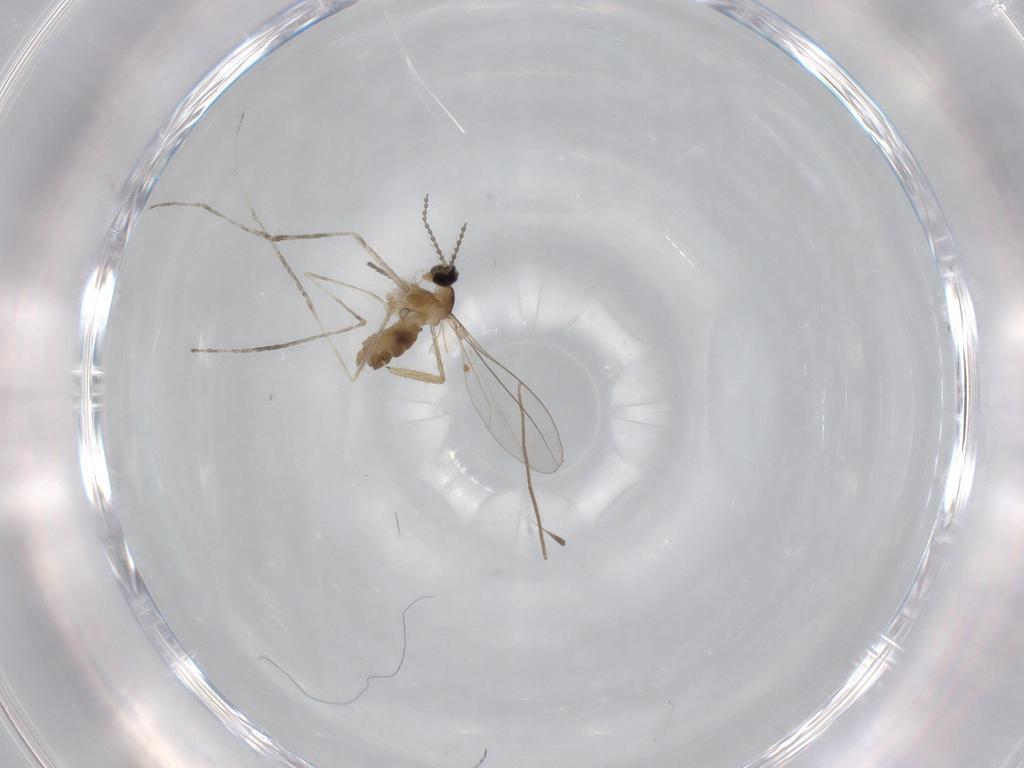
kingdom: Animalia
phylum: Arthropoda
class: Insecta
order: Diptera
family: Cecidomyiidae
